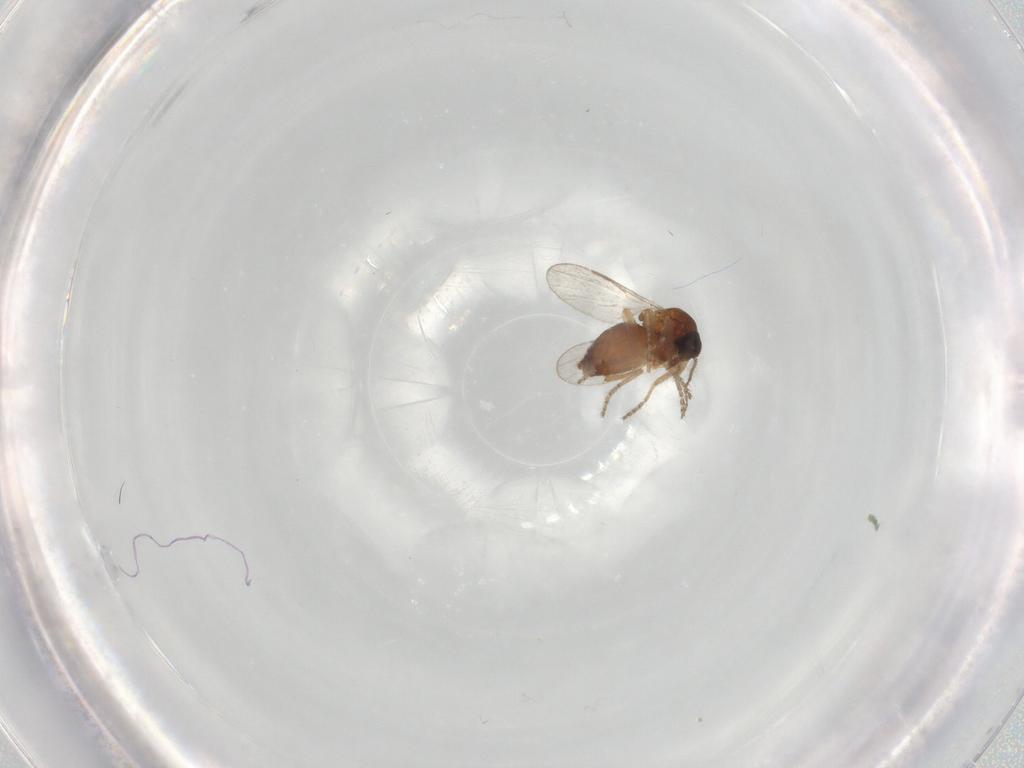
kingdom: Animalia
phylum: Arthropoda
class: Insecta
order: Diptera
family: Ceratopogonidae
